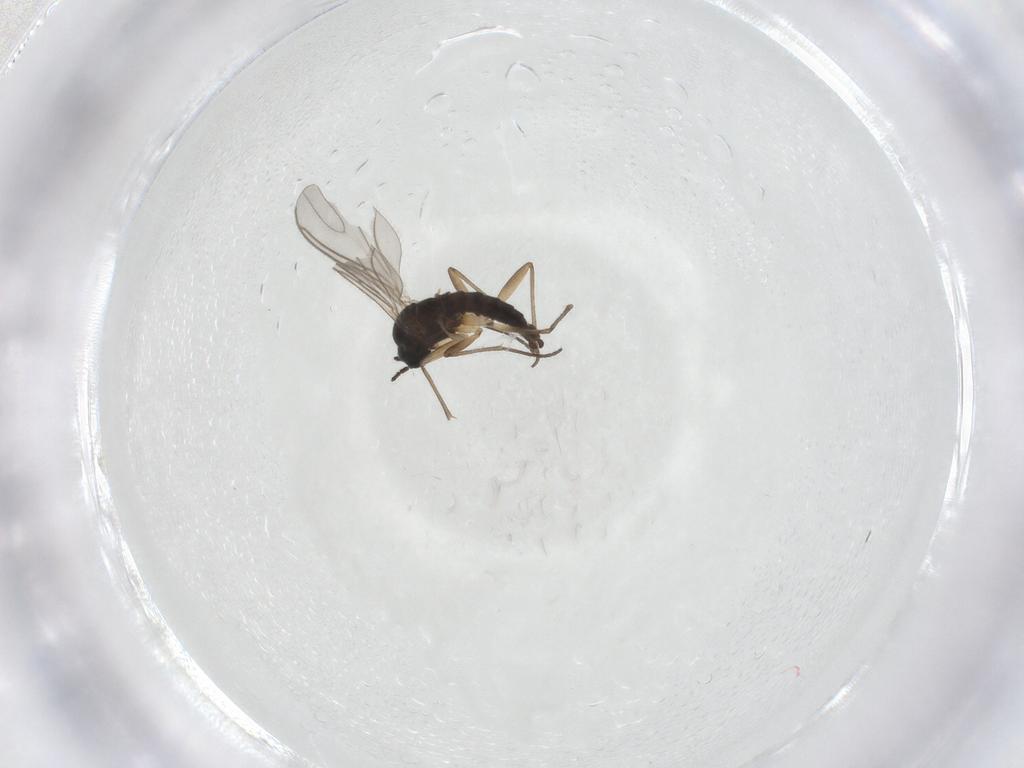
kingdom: Animalia
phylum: Arthropoda
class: Insecta
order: Diptera
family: Sciaridae
